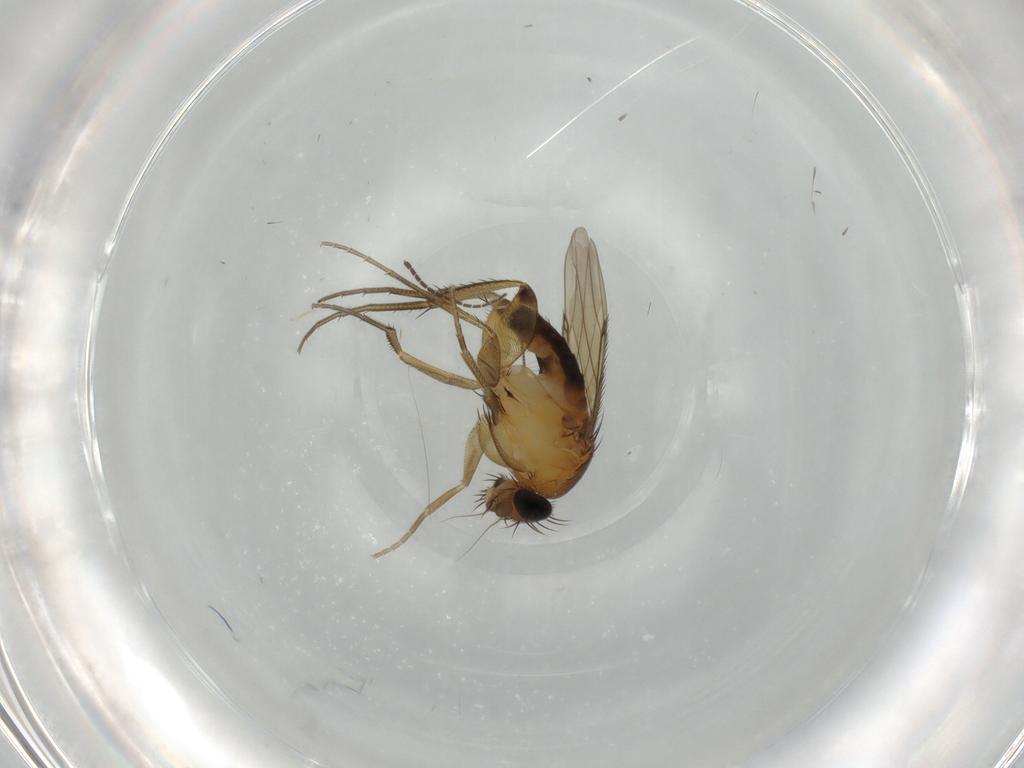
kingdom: Animalia
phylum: Arthropoda
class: Insecta
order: Diptera
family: Phoridae
